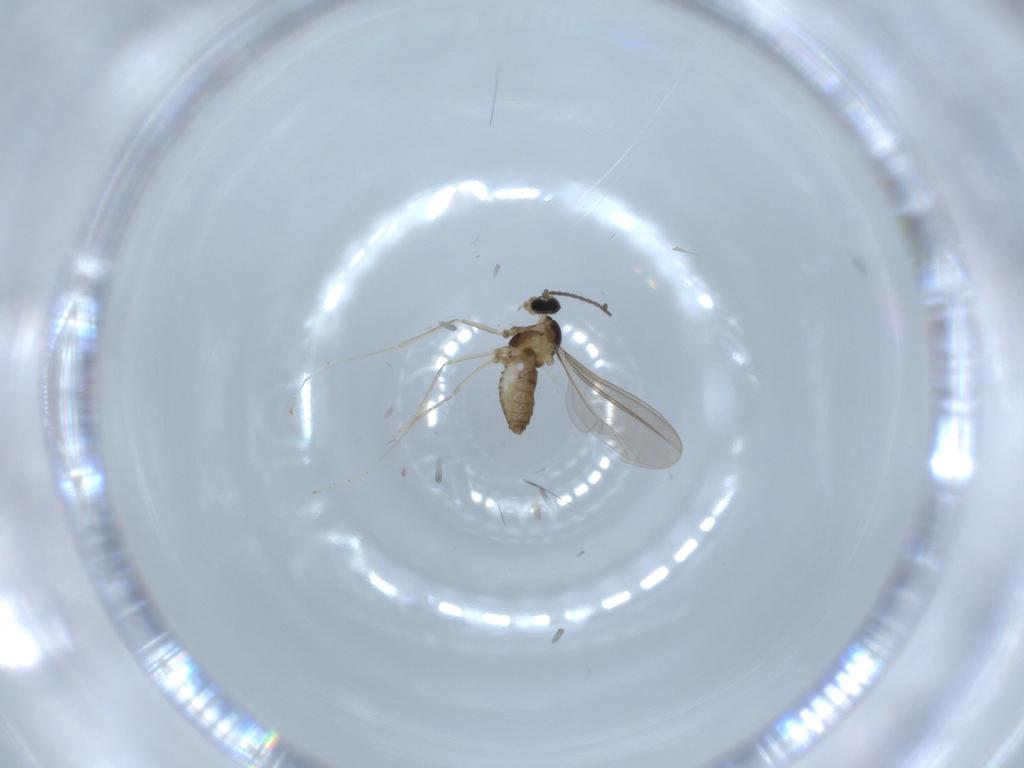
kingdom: Animalia
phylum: Arthropoda
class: Insecta
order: Diptera
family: Cecidomyiidae
